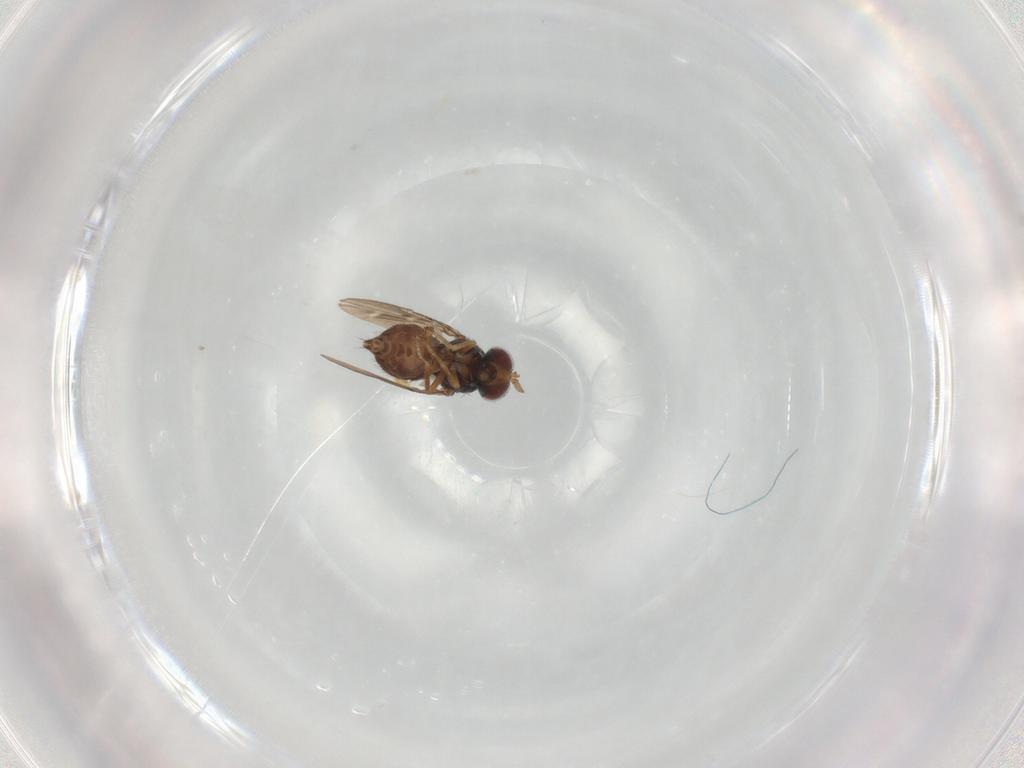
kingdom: Animalia
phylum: Arthropoda
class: Insecta
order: Diptera
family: Ephydridae
